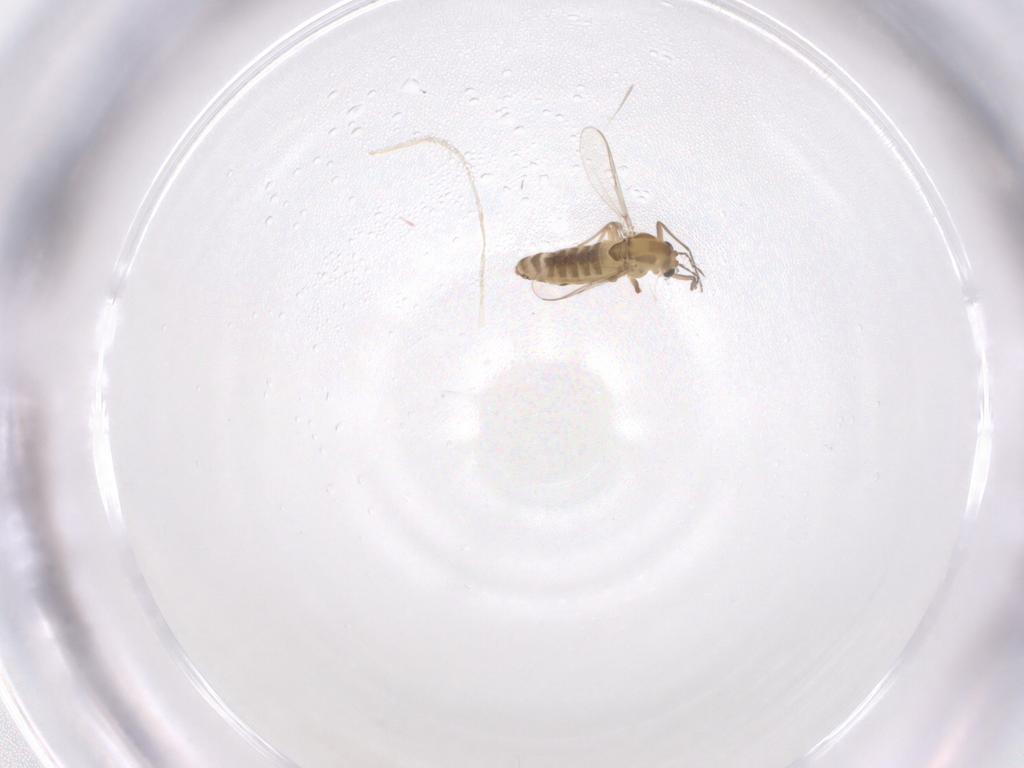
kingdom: Animalia
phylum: Arthropoda
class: Insecta
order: Diptera
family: Chironomidae
